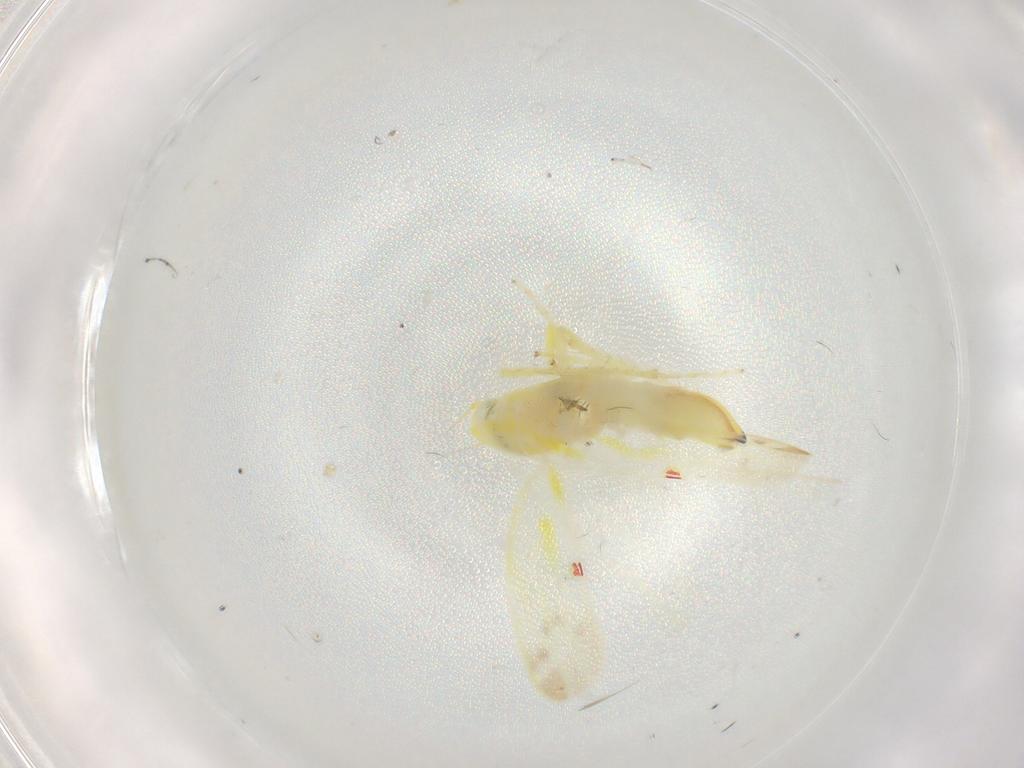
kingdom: Animalia
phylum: Arthropoda
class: Insecta
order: Hemiptera
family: Cicadellidae
